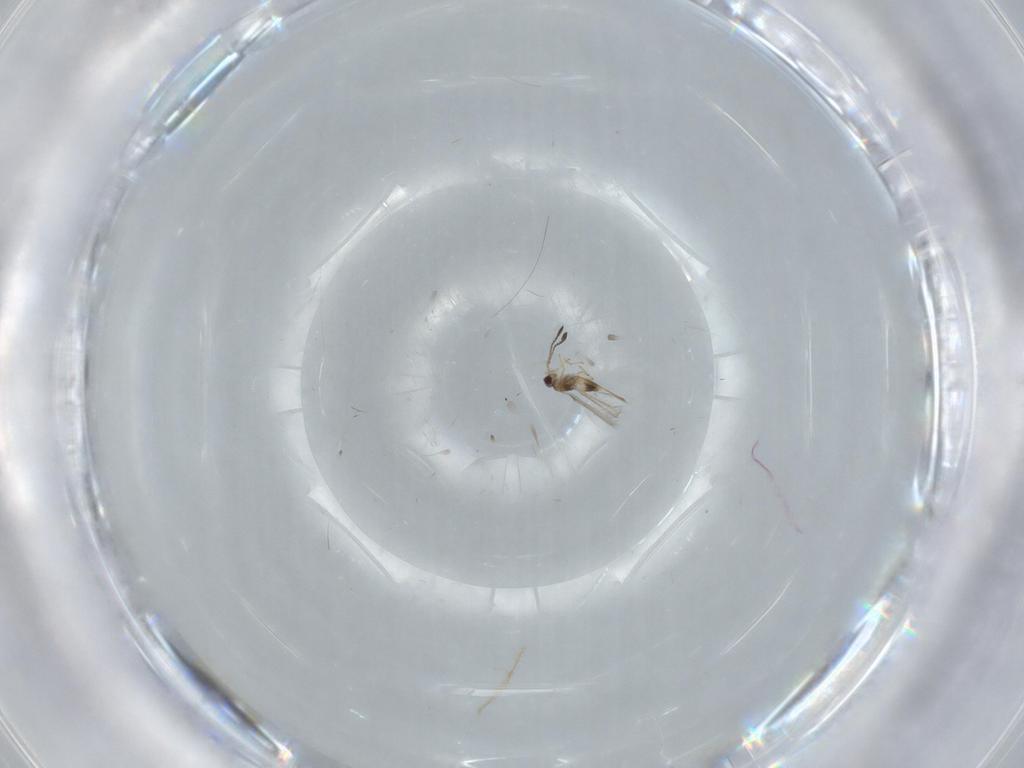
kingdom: Animalia
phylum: Arthropoda
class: Insecta
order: Hymenoptera
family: Mymaridae
